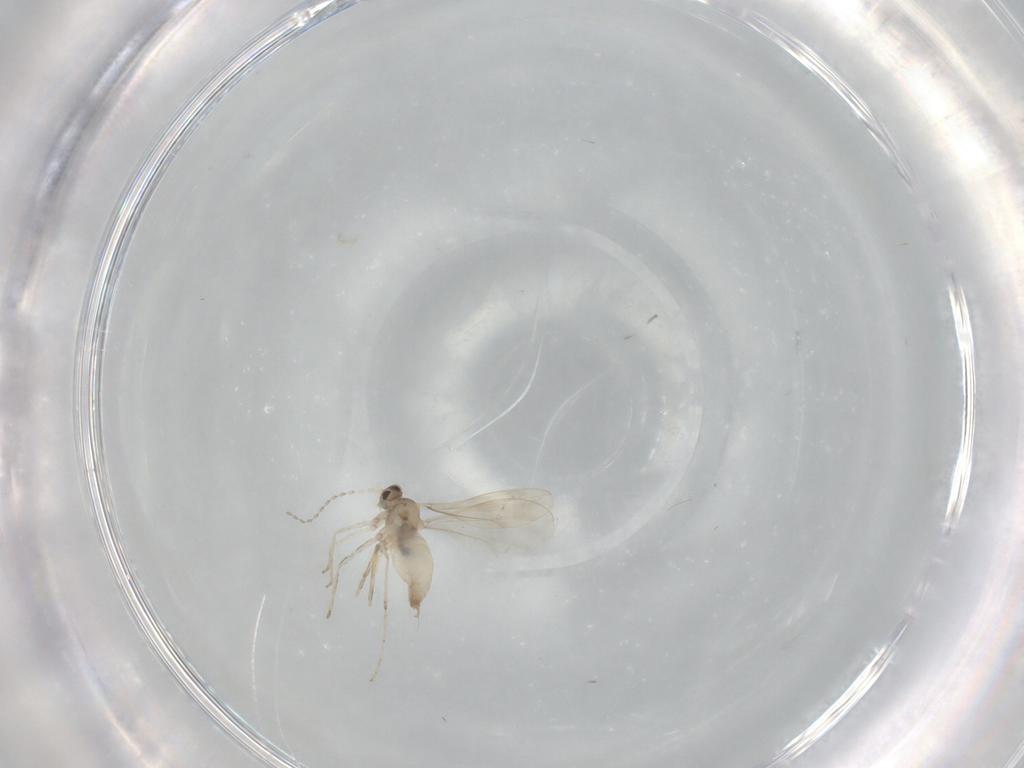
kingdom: Animalia
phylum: Arthropoda
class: Insecta
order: Diptera
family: Cecidomyiidae
